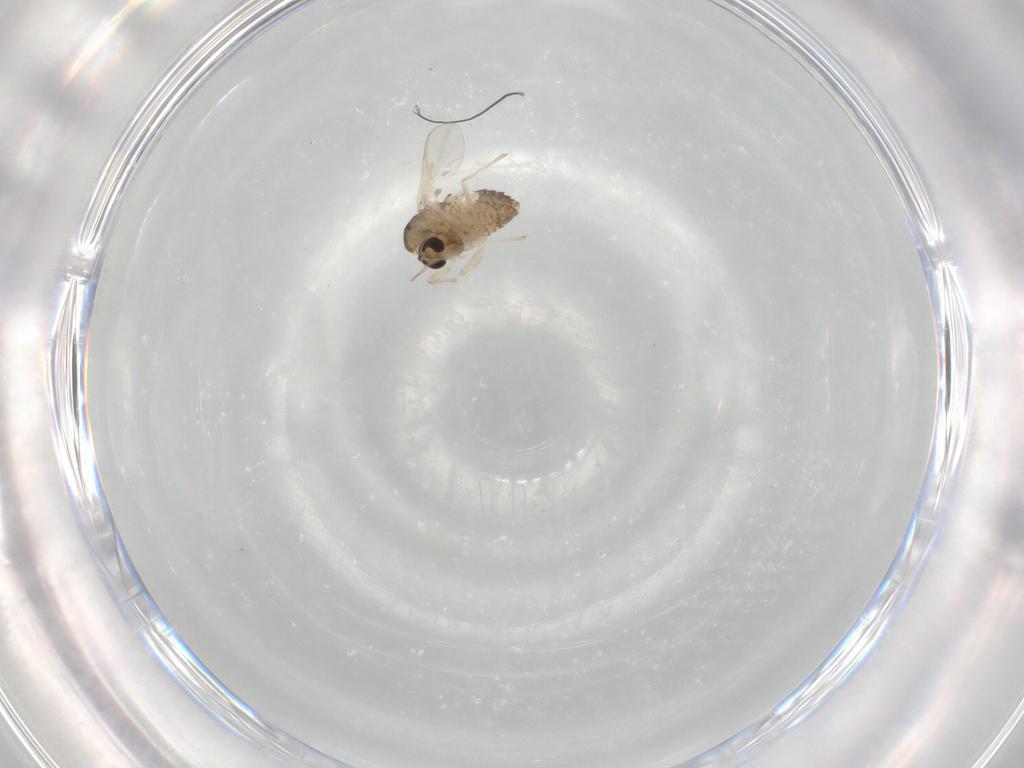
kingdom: Animalia
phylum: Arthropoda
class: Insecta
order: Diptera
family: Chironomidae
